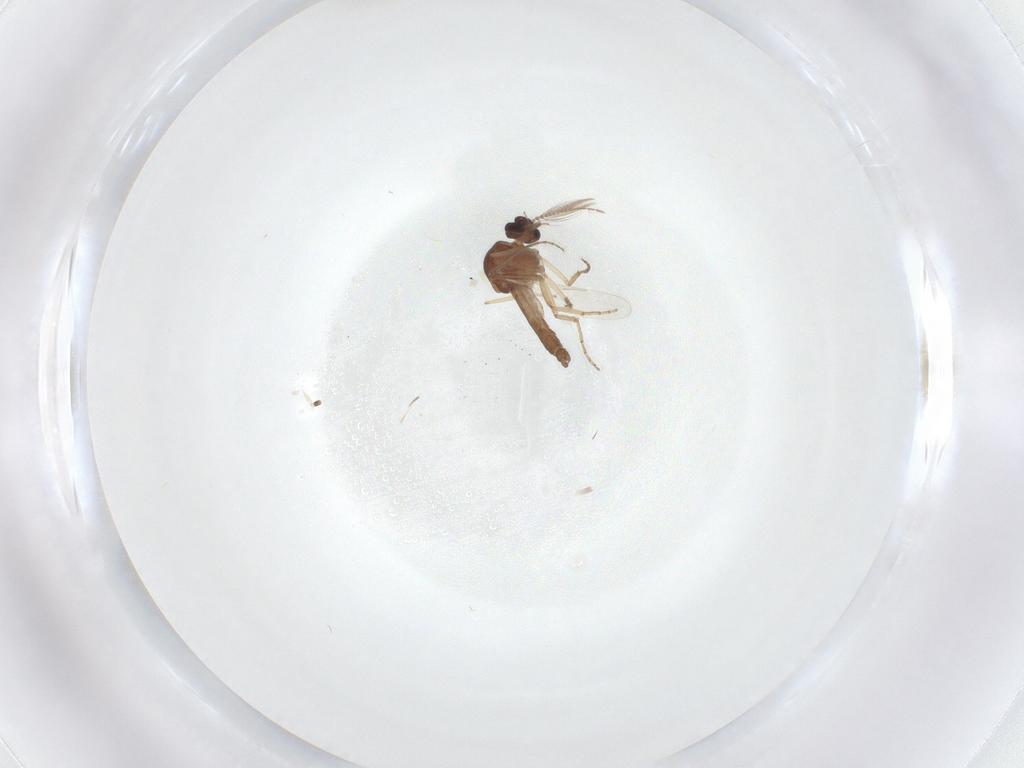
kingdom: Animalia
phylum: Arthropoda
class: Insecta
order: Diptera
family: Ceratopogonidae
